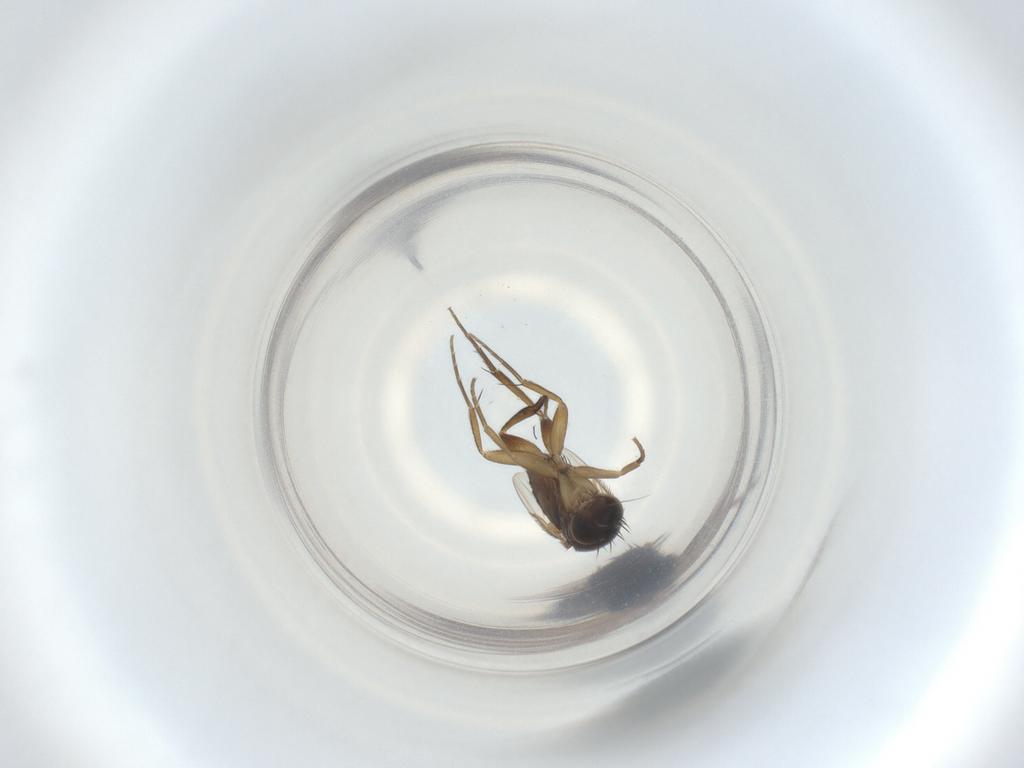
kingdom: Animalia
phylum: Arthropoda
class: Insecta
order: Diptera
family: Phoridae
